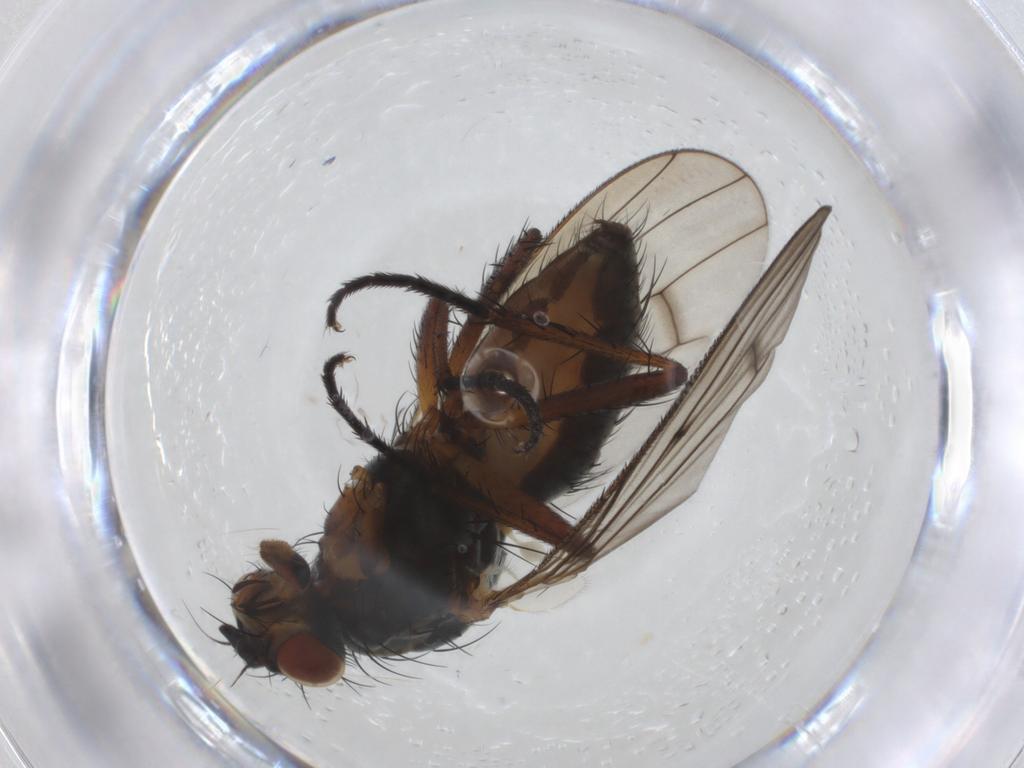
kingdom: Animalia
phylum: Arthropoda
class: Insecta
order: Diptera
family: Anthomyiidae
